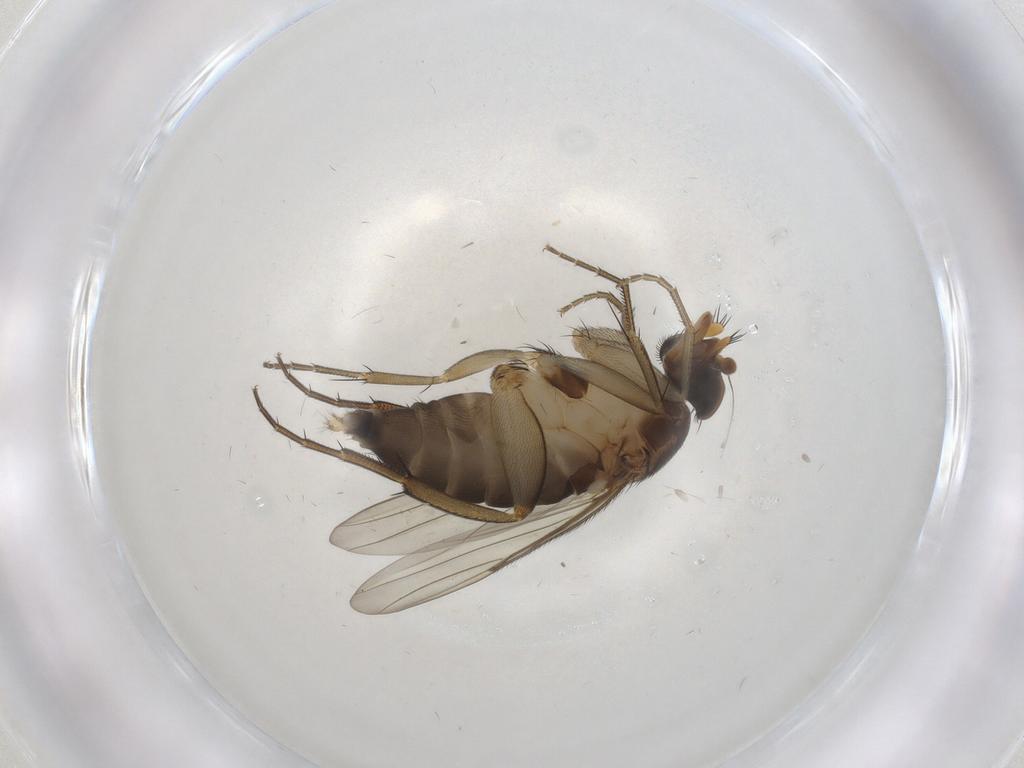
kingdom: Animalia
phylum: Arthropoda
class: Insecta
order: Diptera
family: Phoridae
